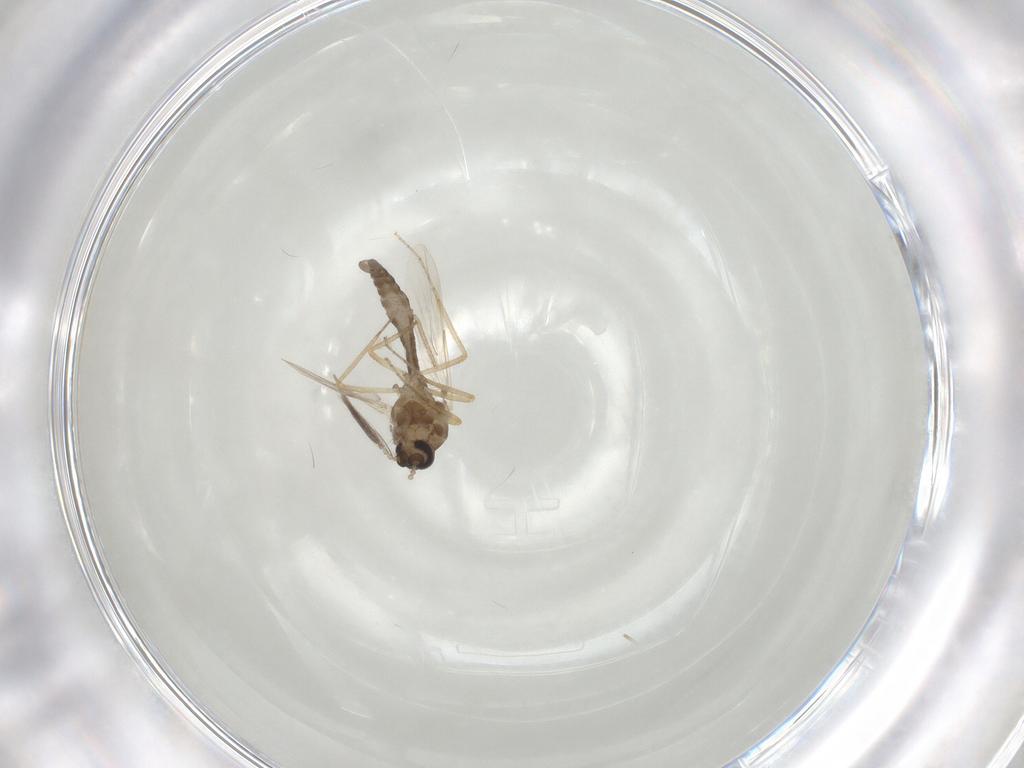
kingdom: Animalia
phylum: Arthropoda
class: Insecta
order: Diptera
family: Ceratopogonidae
